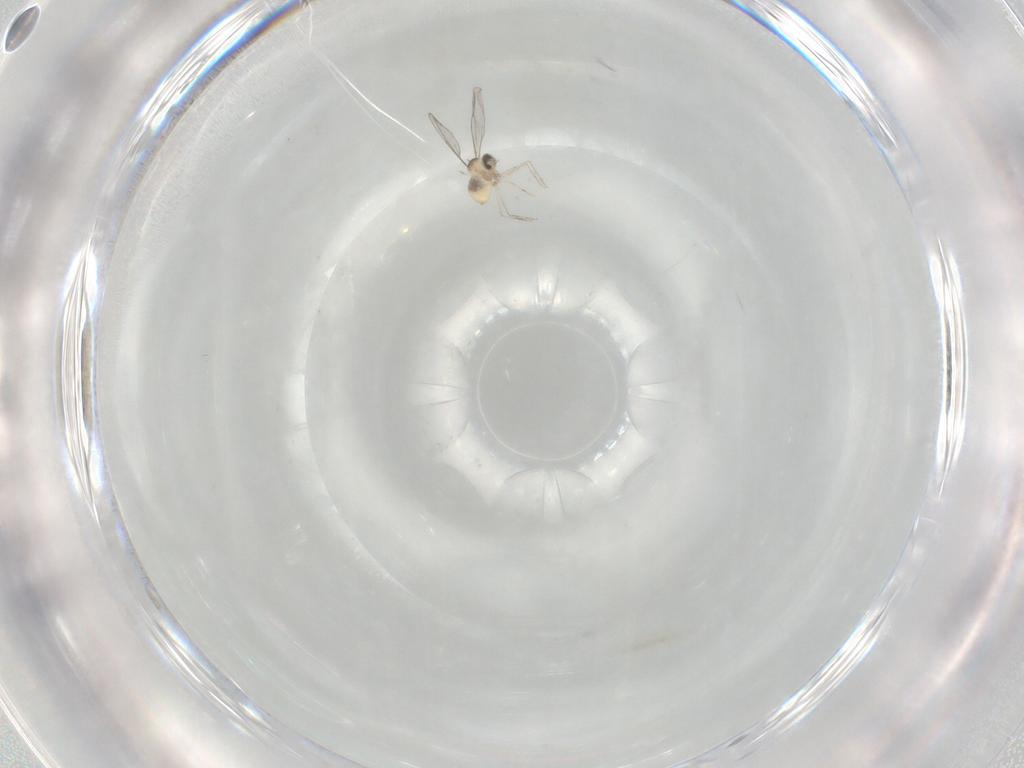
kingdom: Animalia
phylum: Arthropoda
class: Insecta
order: Diptera
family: Cecidomyiidae
